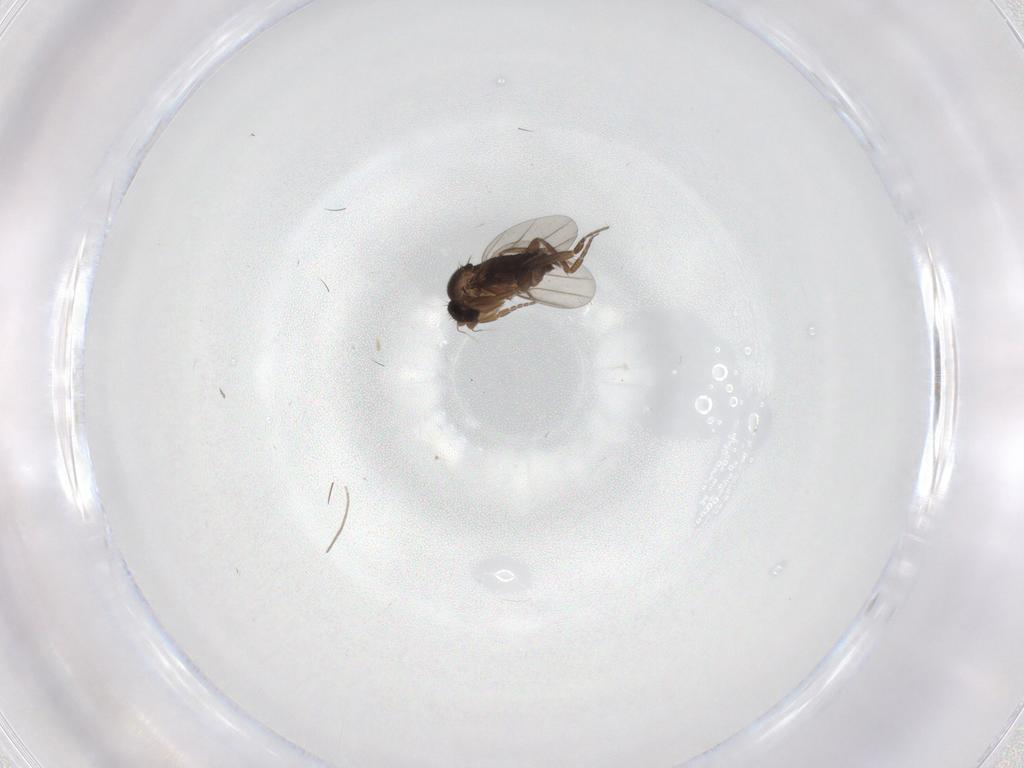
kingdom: Animalia
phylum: Arthropoda
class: Insecta
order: Diptera
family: Phoridae
